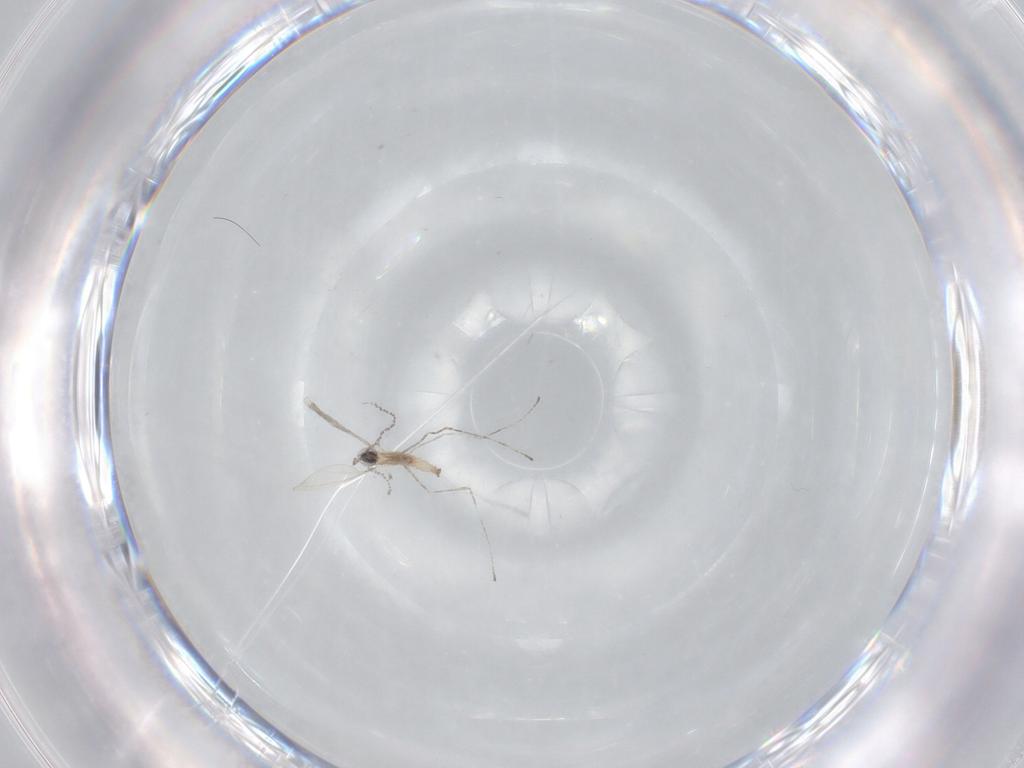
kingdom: Animalia
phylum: Arthropoda
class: Insecta
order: Diptera
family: Cecidomyiidae
